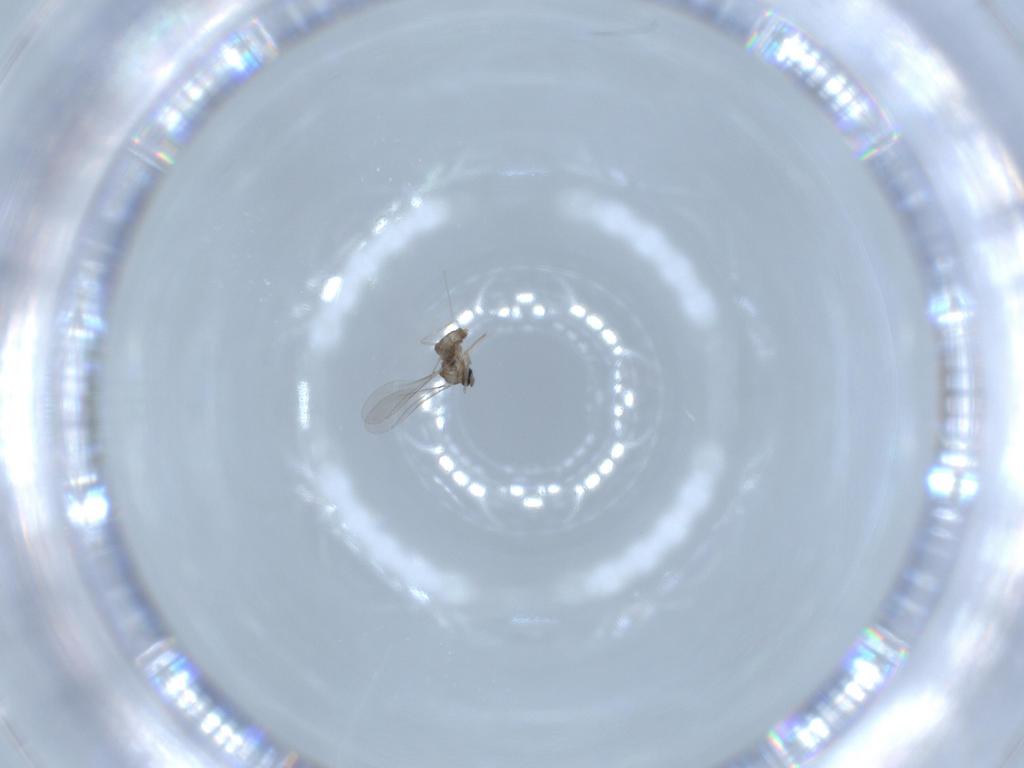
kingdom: Animalia
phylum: Arthropoda
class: Insecta
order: Diptera
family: Cecidomyiidae
